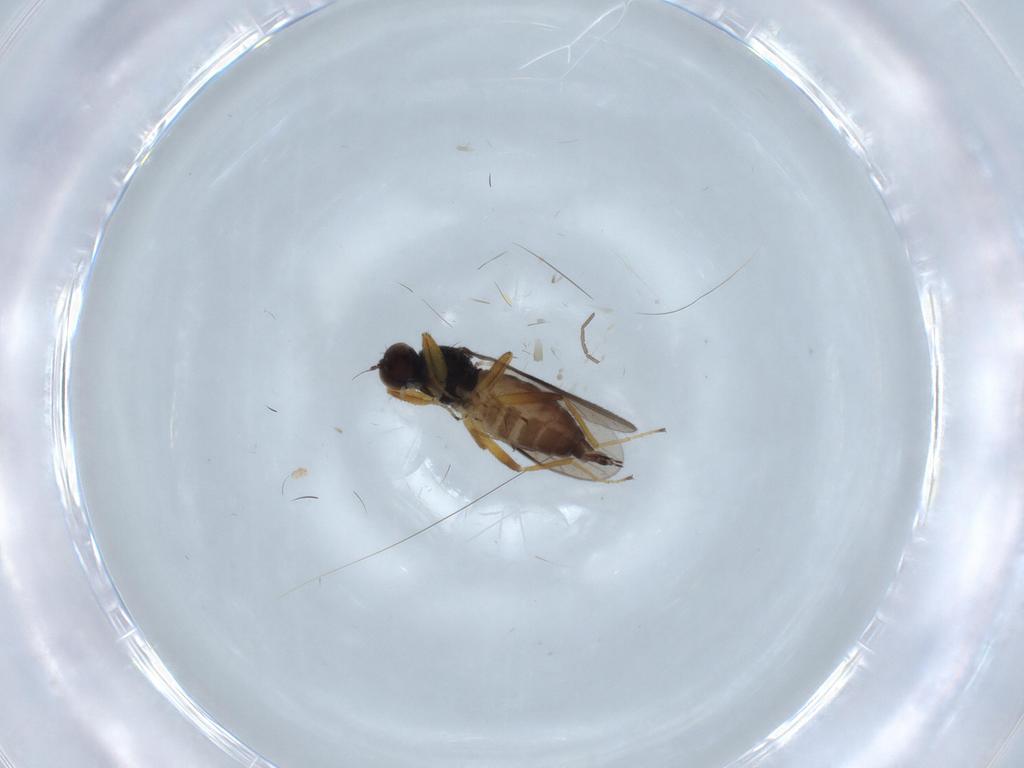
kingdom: Animalia
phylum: Arthropoda
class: Insecta
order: Diptera
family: Hybotidae
